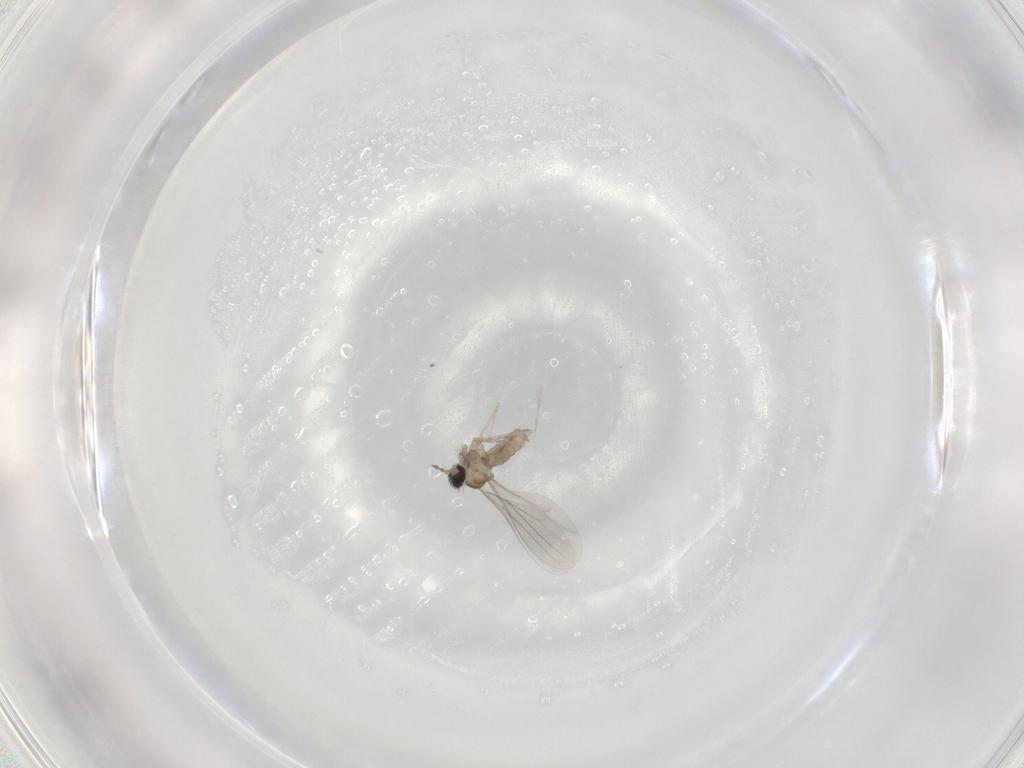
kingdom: Animalia
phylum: Arthropoda
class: Insecta
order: Diptera
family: Cecidomyiidae
